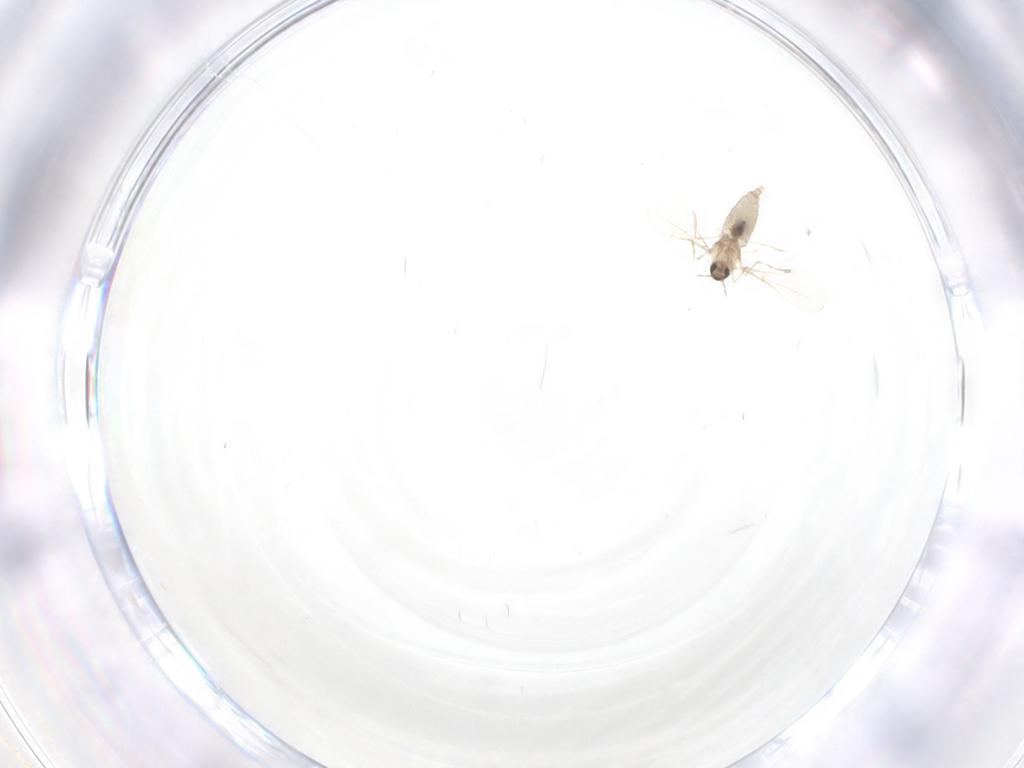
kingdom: Animalia
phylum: Arthropoda
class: Insecta
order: Diptera
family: Cecidomyiidae
